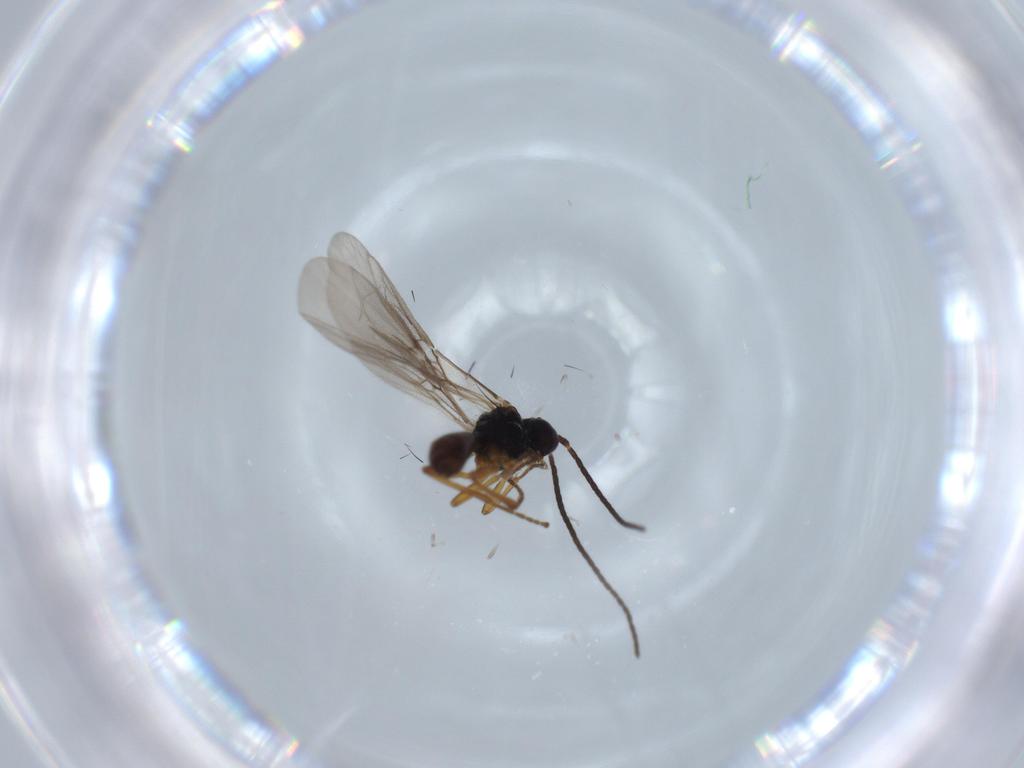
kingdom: Animalia
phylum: Arthropoda
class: Insecta
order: Hymenoptera
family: Braconidae
